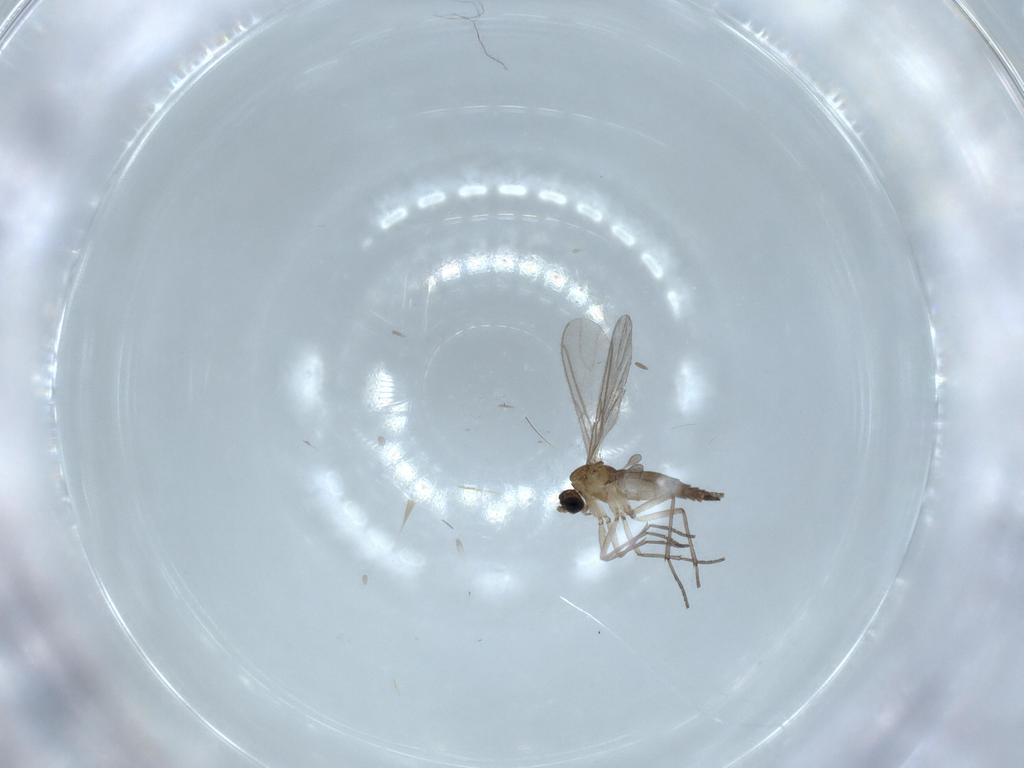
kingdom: Animalia
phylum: Arthropoda
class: Insecta
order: Diptera
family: Sciaridae
